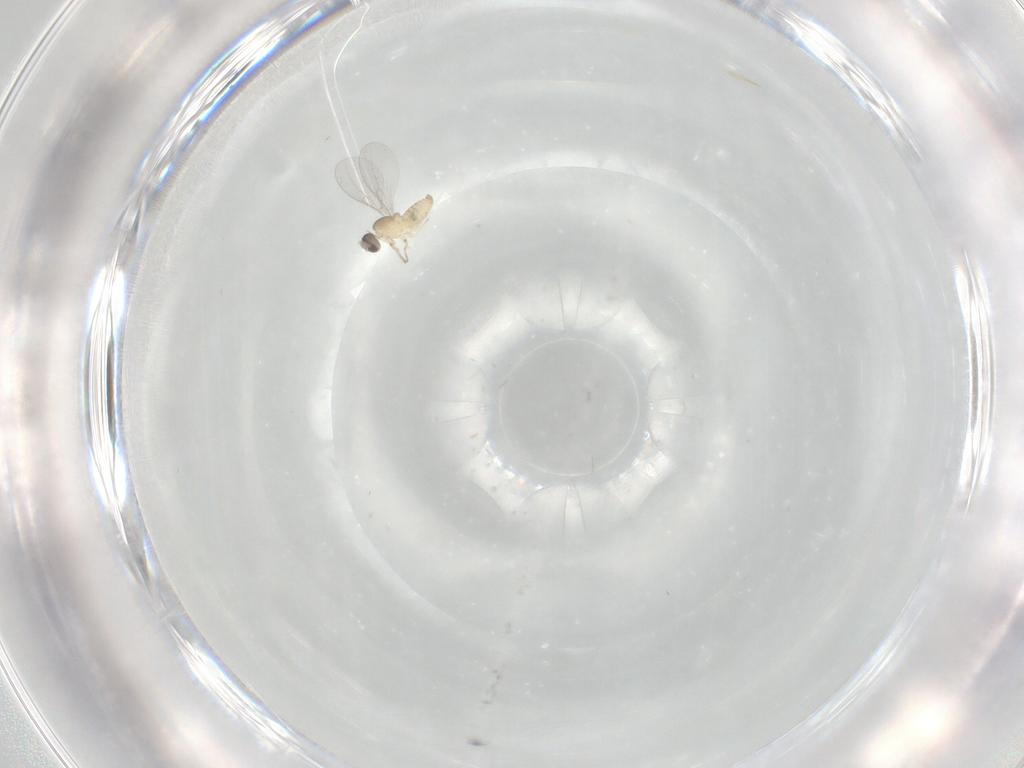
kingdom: Animalia
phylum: Arthropoda
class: Insecta
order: Diptera
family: Cecidomyiidae
